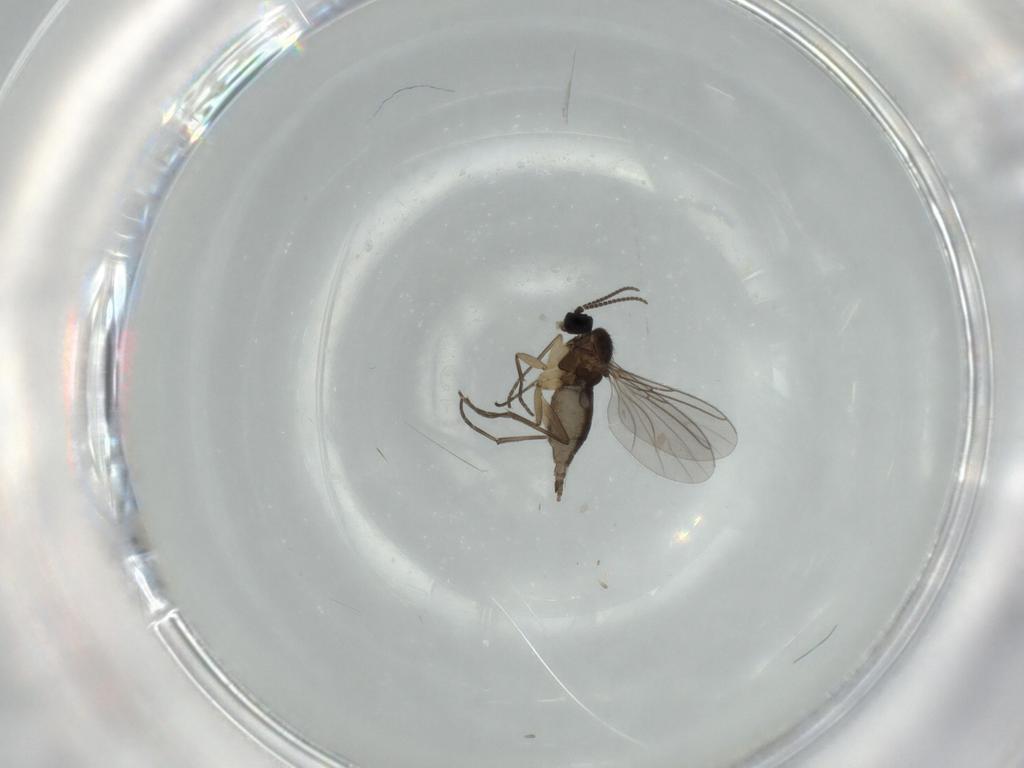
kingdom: Animalia
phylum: Arthropoda
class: Insecta
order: Diptera
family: Sciaridae
